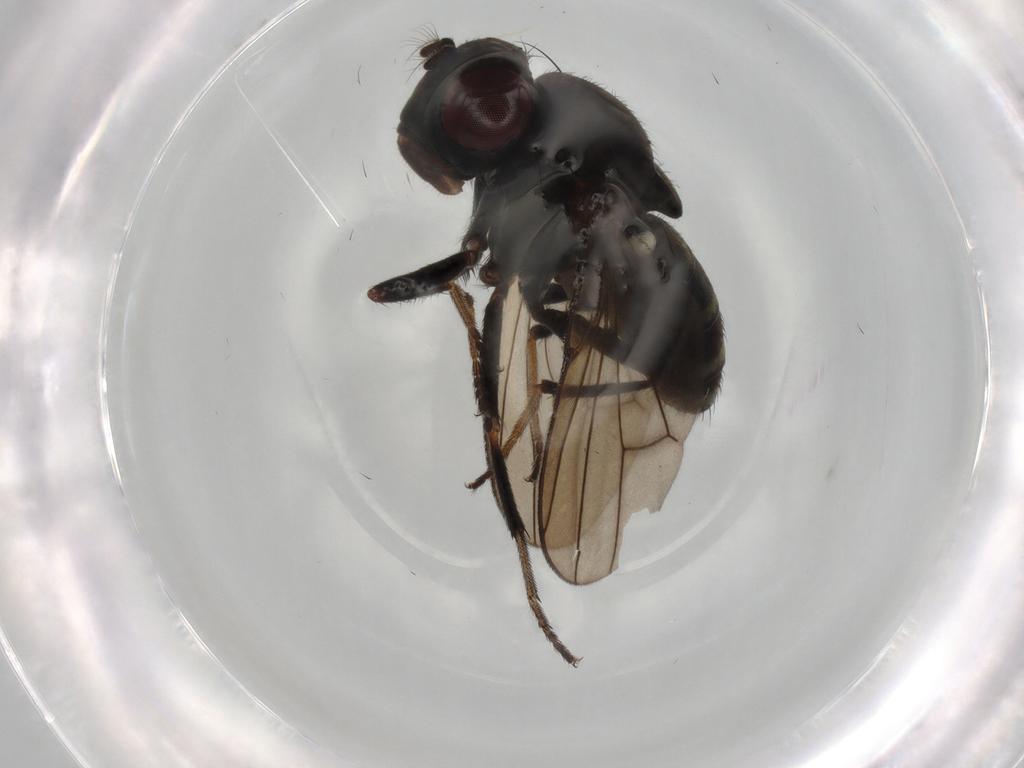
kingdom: Animalia
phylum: Arthropoda
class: Insecta
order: Diptera
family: Ephydridae
